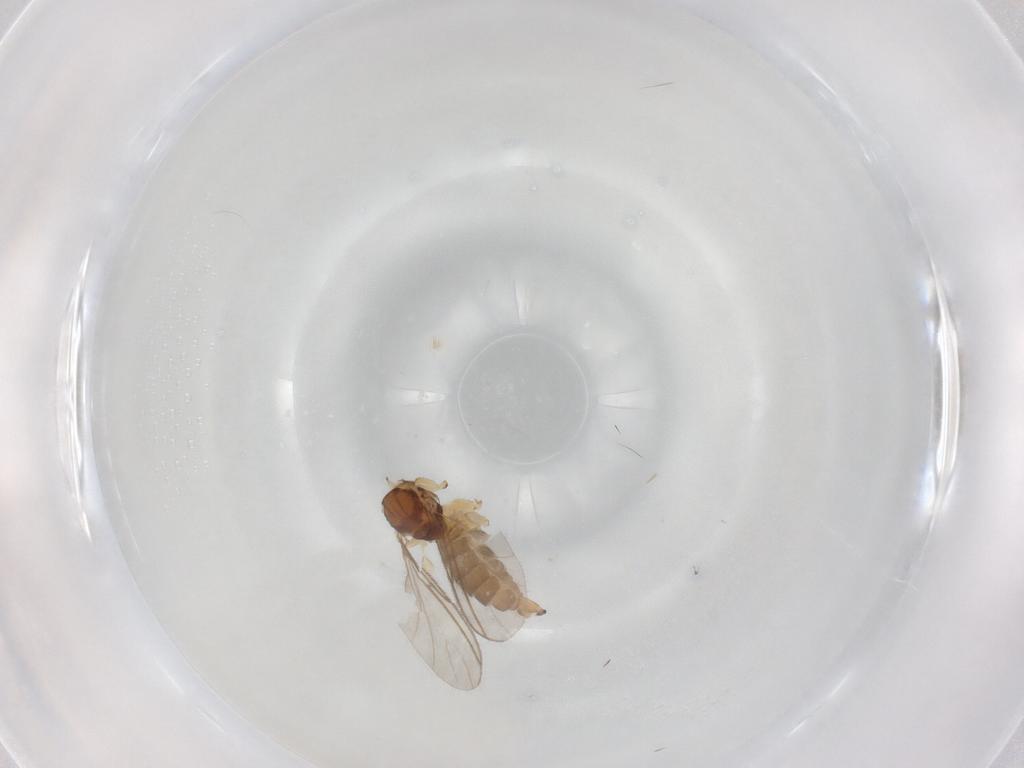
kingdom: Animalia
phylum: Arthropoda
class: Insecta
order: Diptera
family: Sciaridae
